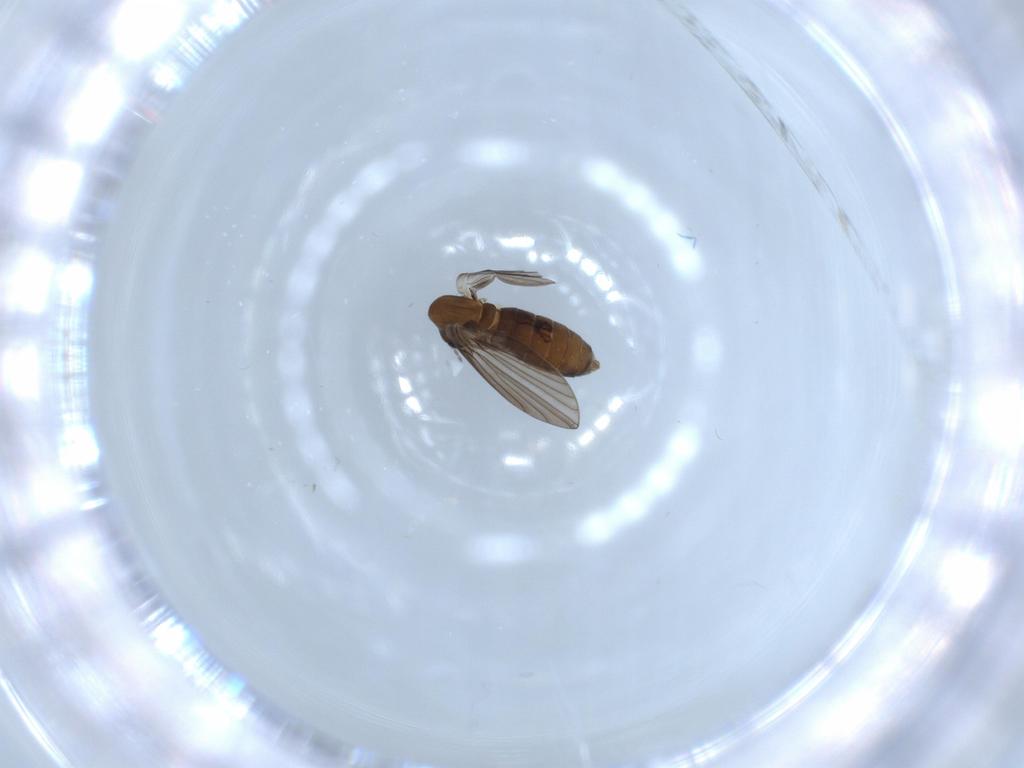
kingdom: Animalia
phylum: Arthropoda
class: Insecta
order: Diptera
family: Psychodidae
